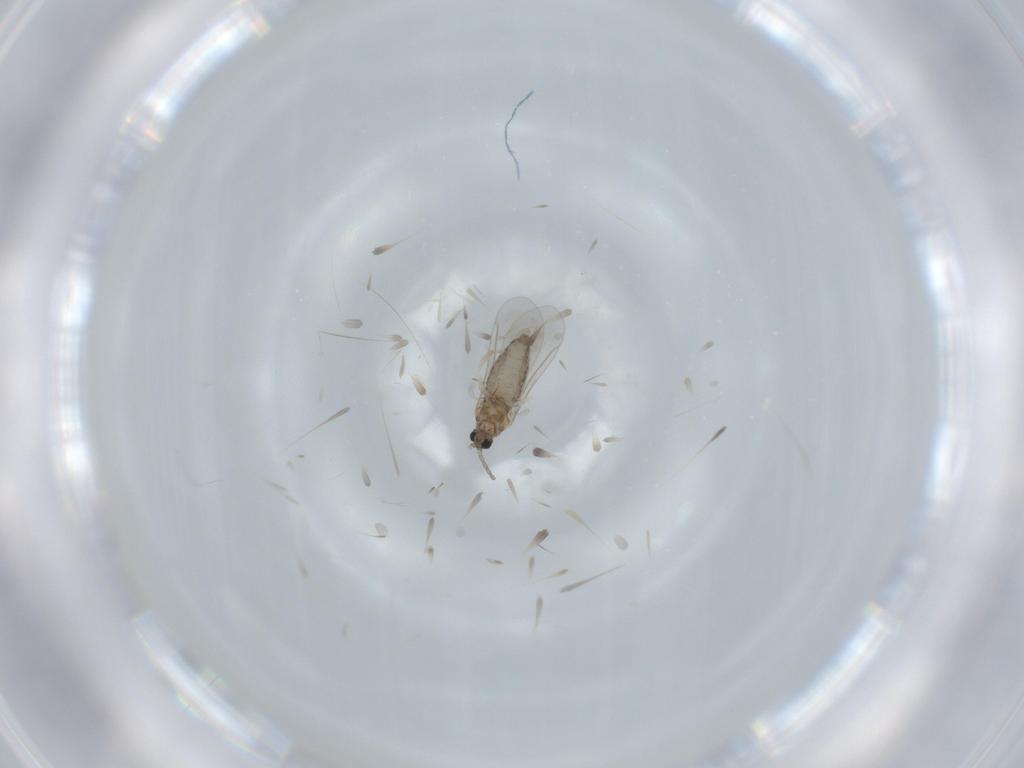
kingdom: Animalia
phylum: Arthropoda
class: Insecta
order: Diptera
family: Cecidomyiidae
